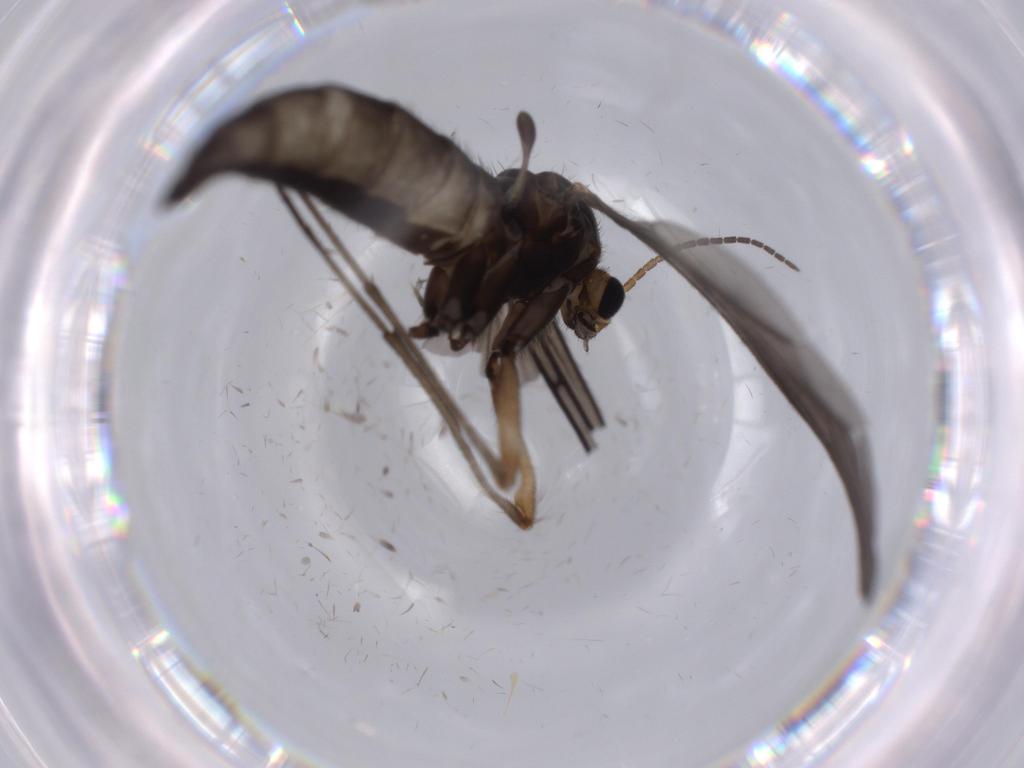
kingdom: Animalia
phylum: Arthropoda
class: Insecta
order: Diptera
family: Sciaridae
